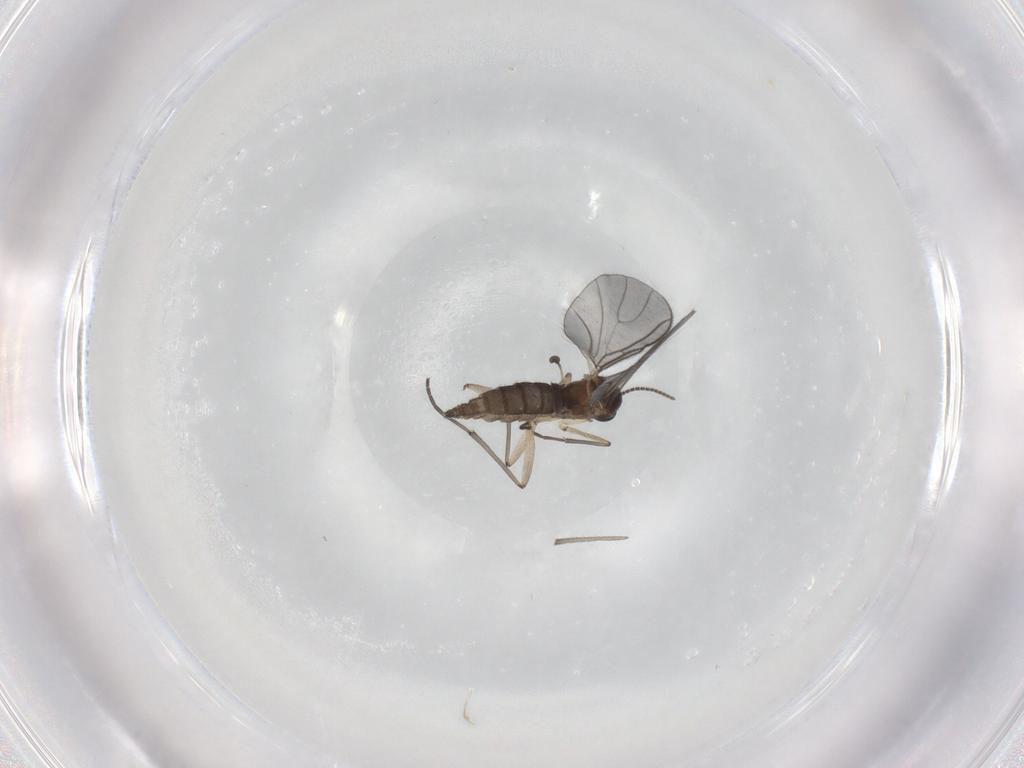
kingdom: Animalia
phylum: Arthropoda
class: Insecta
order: Diptera
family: Sciaridae
